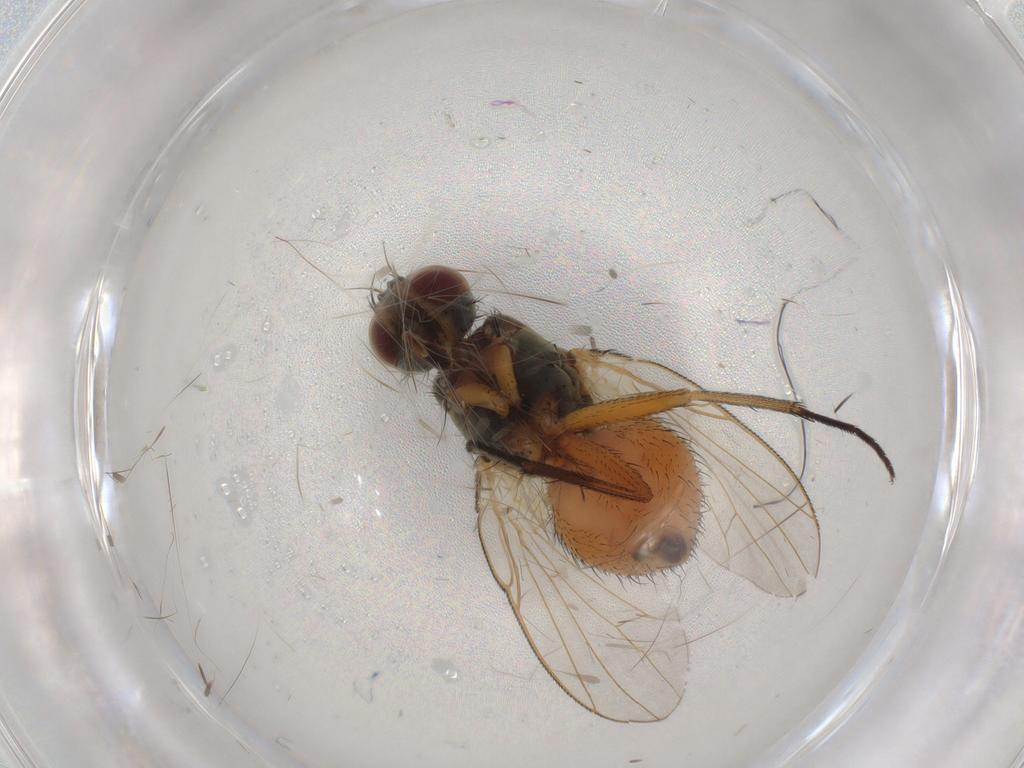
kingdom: Animalia
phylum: Arthropoda
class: Insecta
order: Diptera
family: Sphaeroceridae
